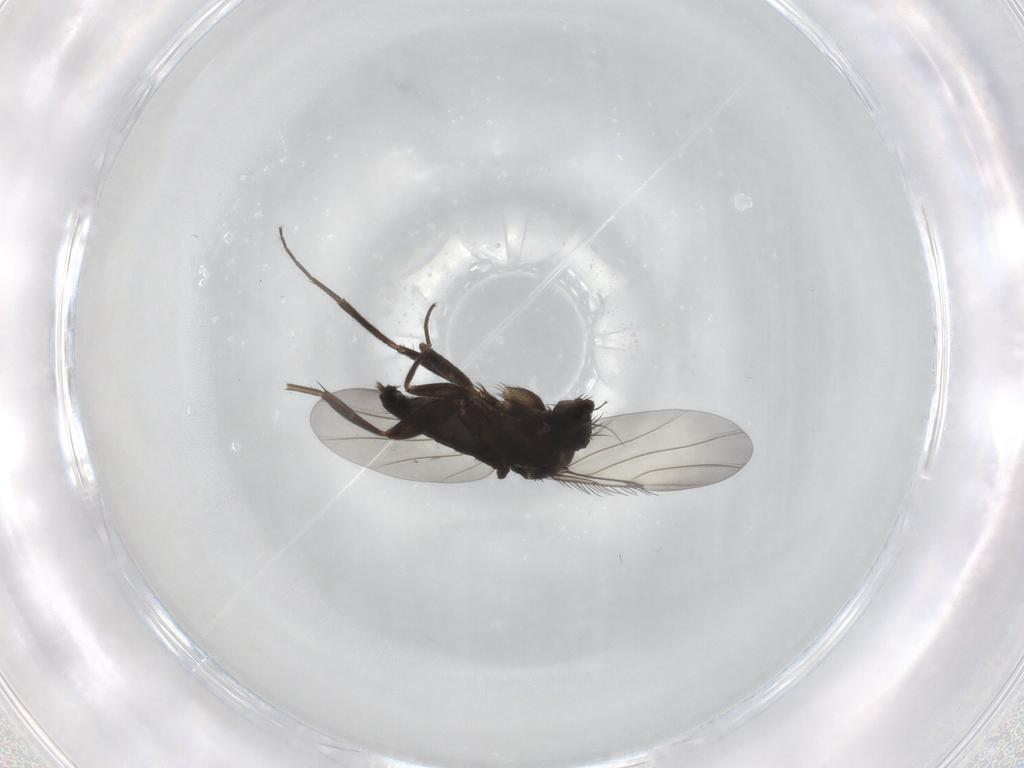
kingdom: Animalia
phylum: Arthropoda
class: Insecta
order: Diptera
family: Phoridae
